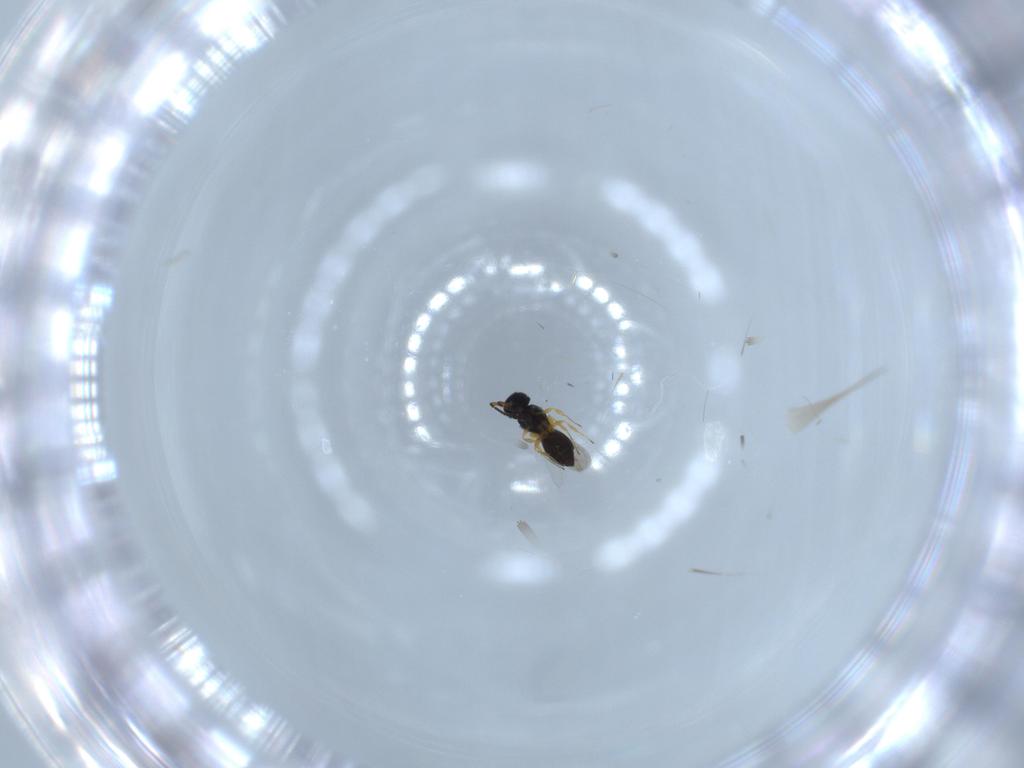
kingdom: Animalia
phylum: Arthropoda
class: Insecta
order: Hymenoptera
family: Scelionidae
